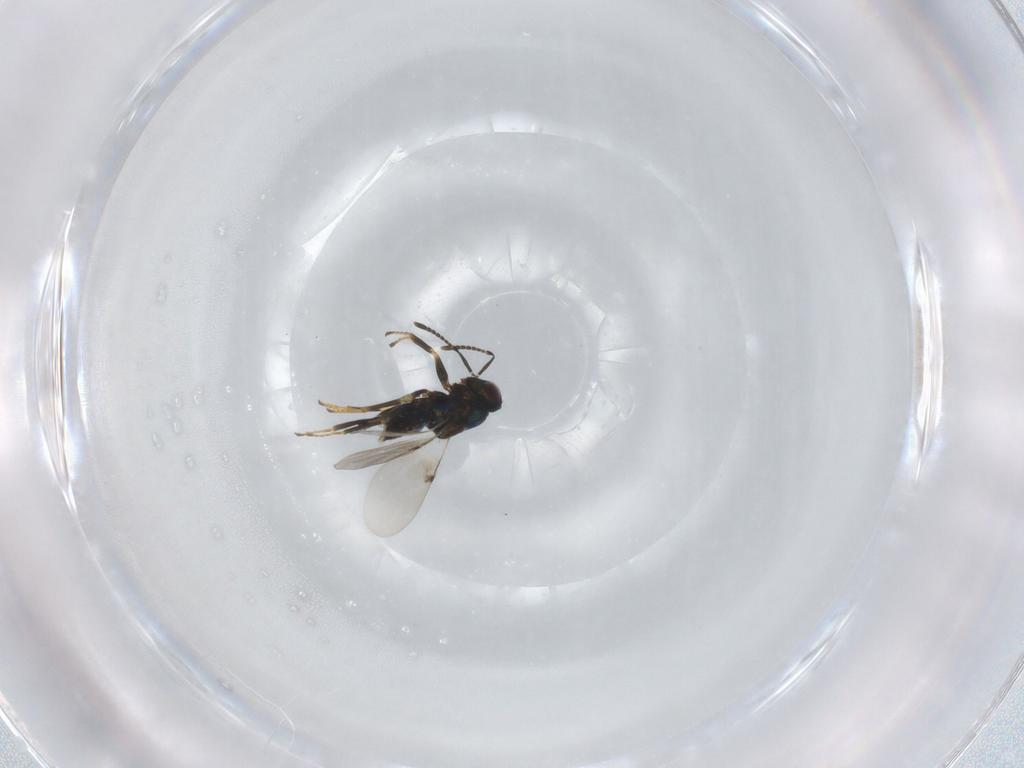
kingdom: Animalia
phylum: Arthropoda
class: Insecta
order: Hymenoptera
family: Encyrtidae
